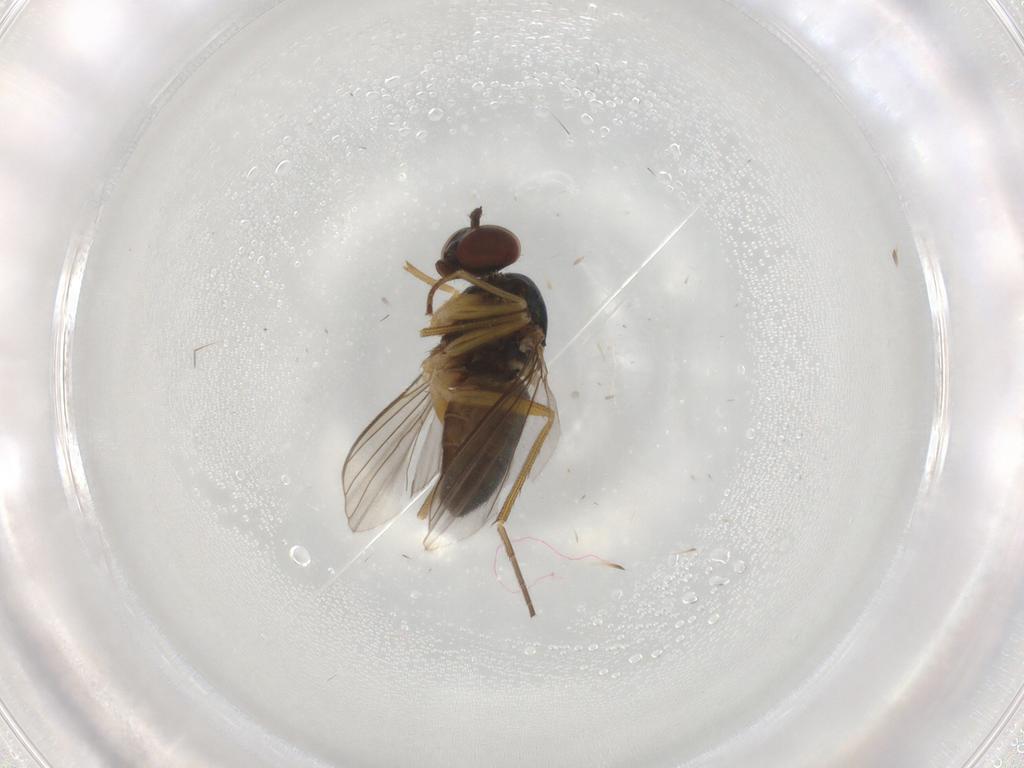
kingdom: Animalia
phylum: Arthropoda
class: Insecta
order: Diptera
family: Dolichopodidae
